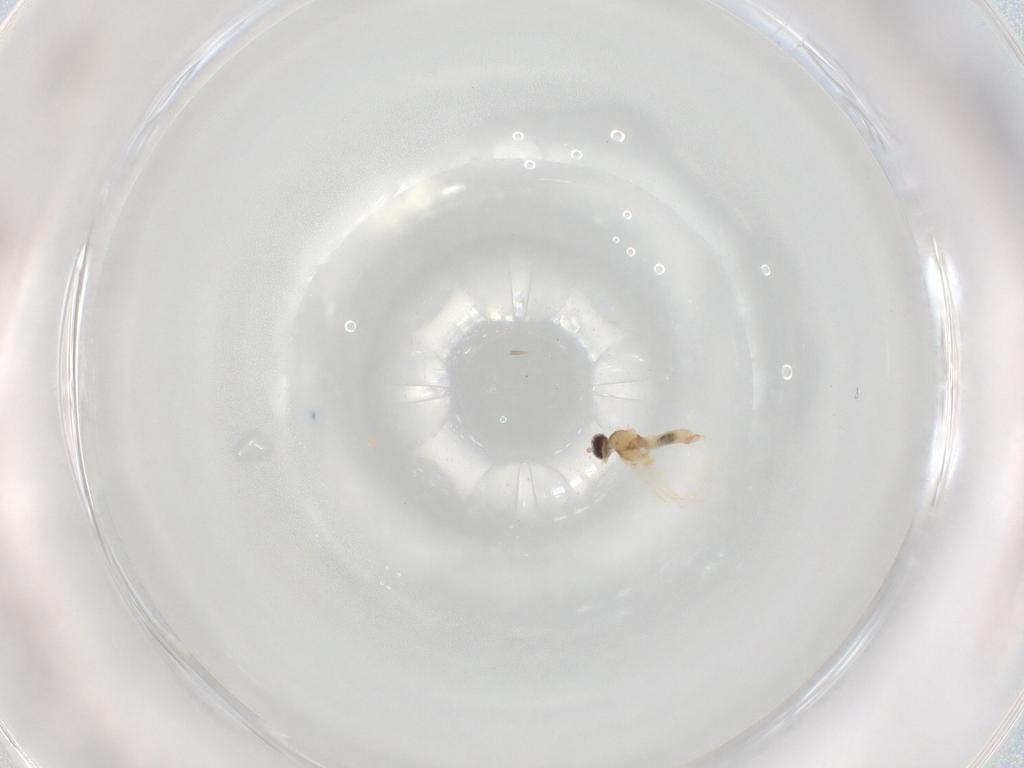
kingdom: Animalia
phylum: Arthropoda
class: Insecta
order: Diptera
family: Cecidomyiidae
